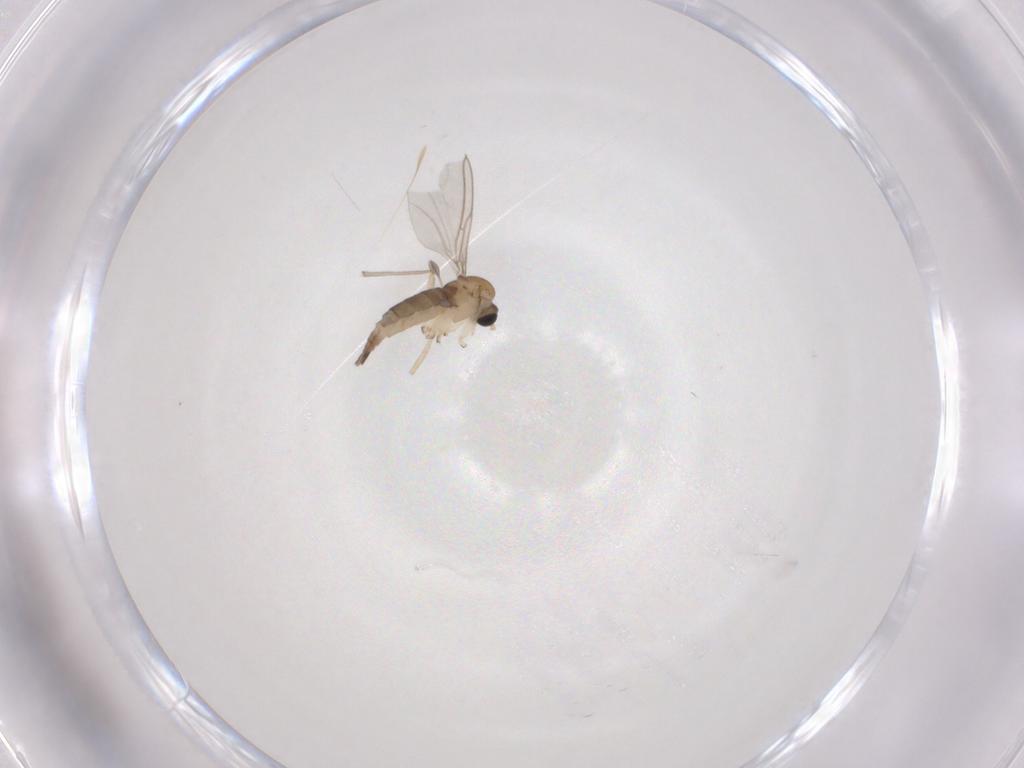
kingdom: Animalia
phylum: Arthropoda
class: Insecta
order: Diptera
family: Sciaridae
